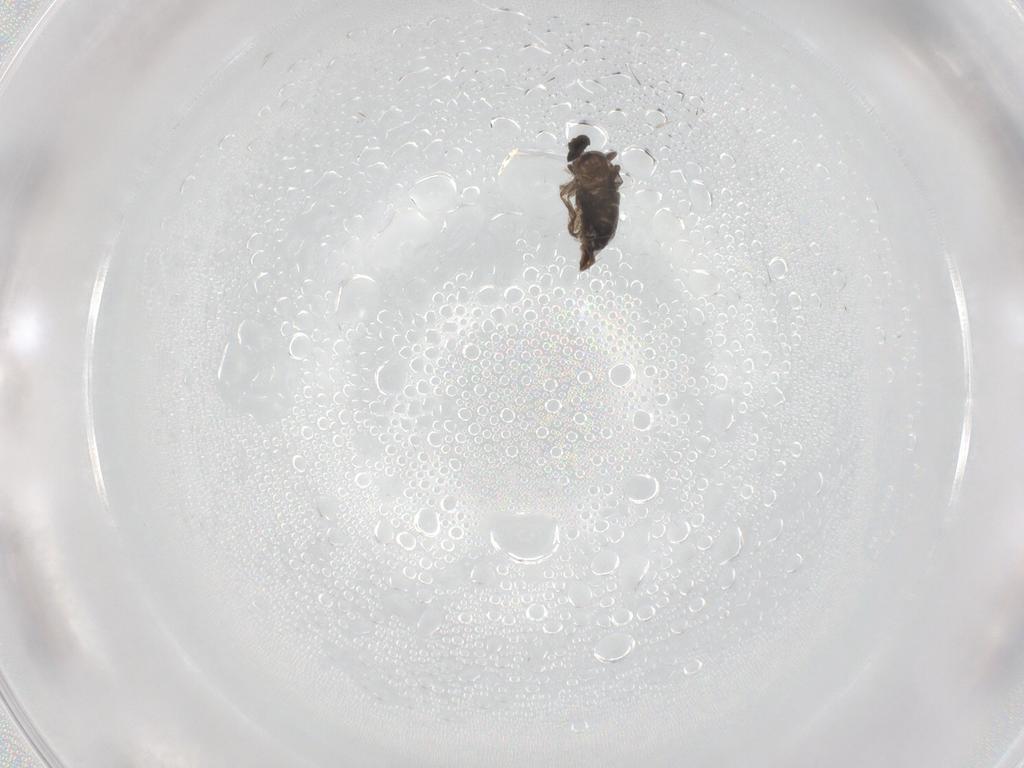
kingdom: Animalia
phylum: Arthropoda
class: Insecta
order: Diptera
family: Phoridae
